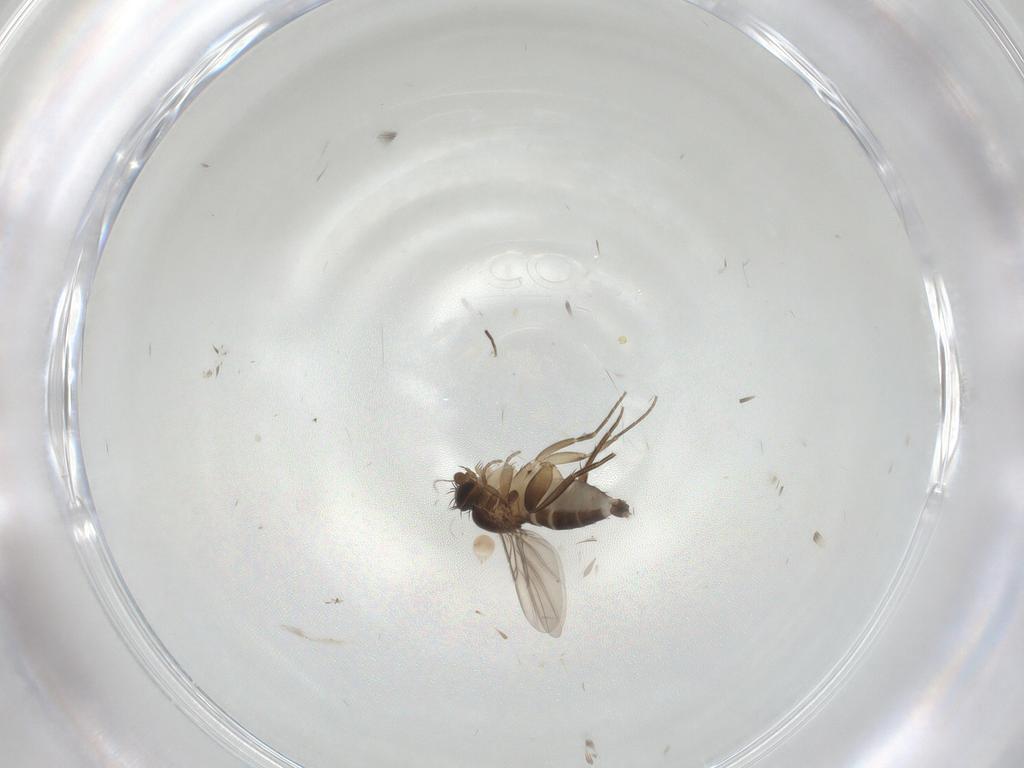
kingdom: Animalia
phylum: Arthropoda
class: Insecta
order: Diptera
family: Phoridae
